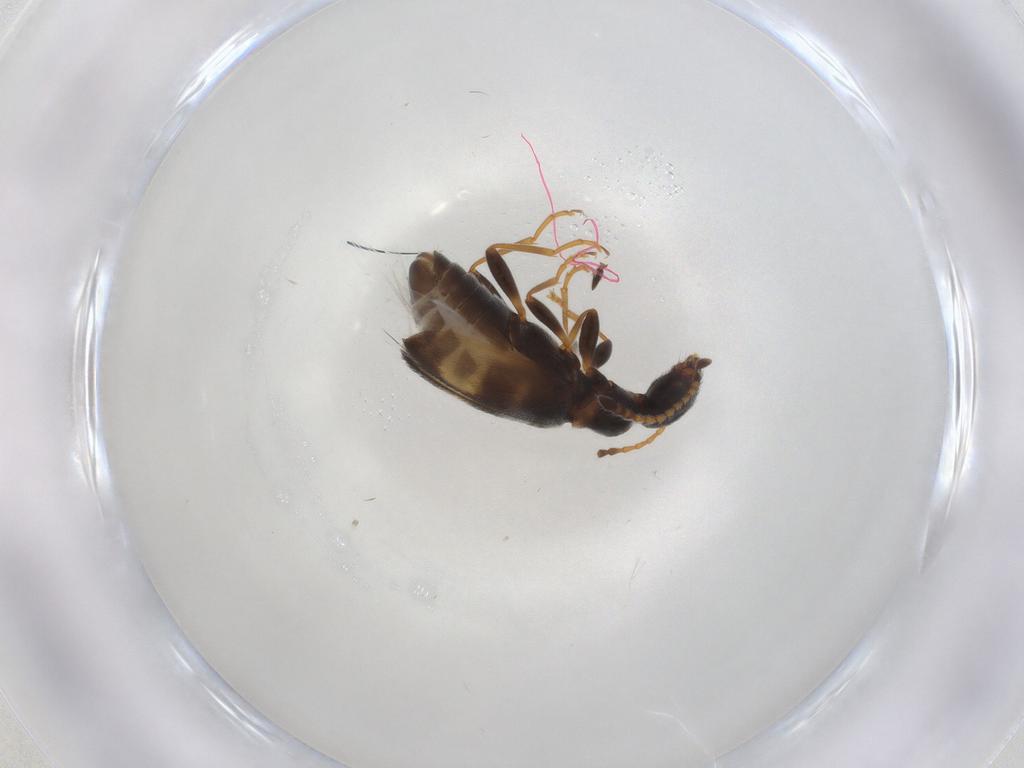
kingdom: Animalia
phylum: Arthropoda
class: Insecta
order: Coleoptera
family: Anthicidae
